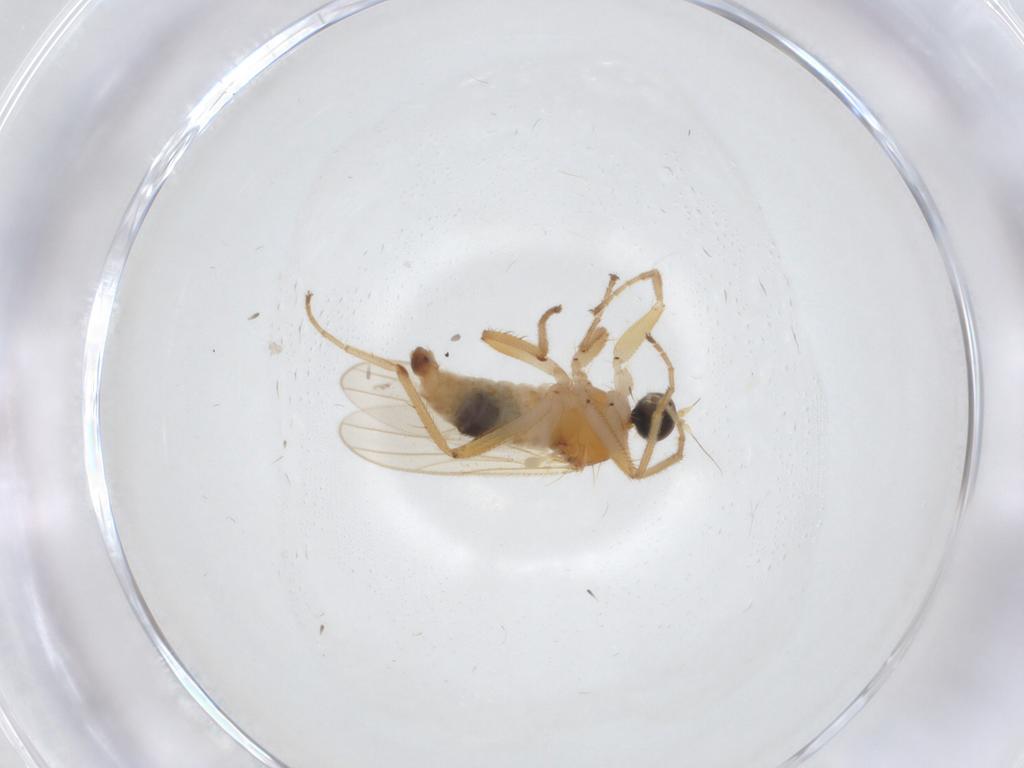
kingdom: Animalia
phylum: Arthropoda
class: Insecta
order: Diptera
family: Hybotidae
